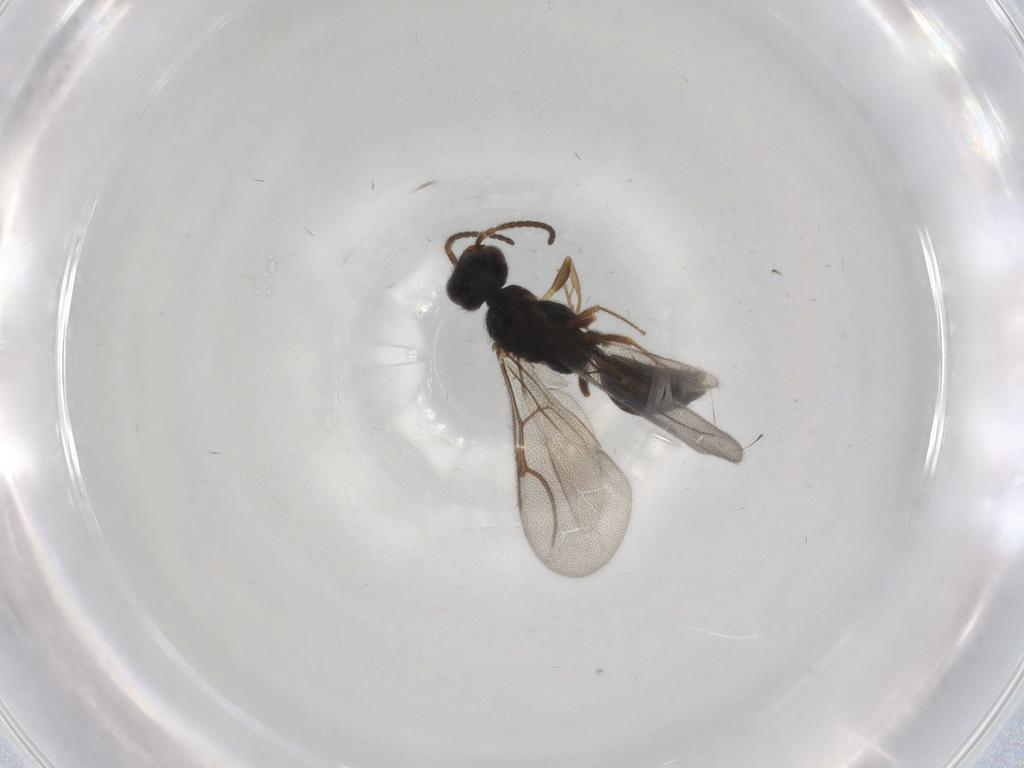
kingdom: Animalia
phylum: Arthropoda
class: Insecta
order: Hymenoptera
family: Bethylidae
